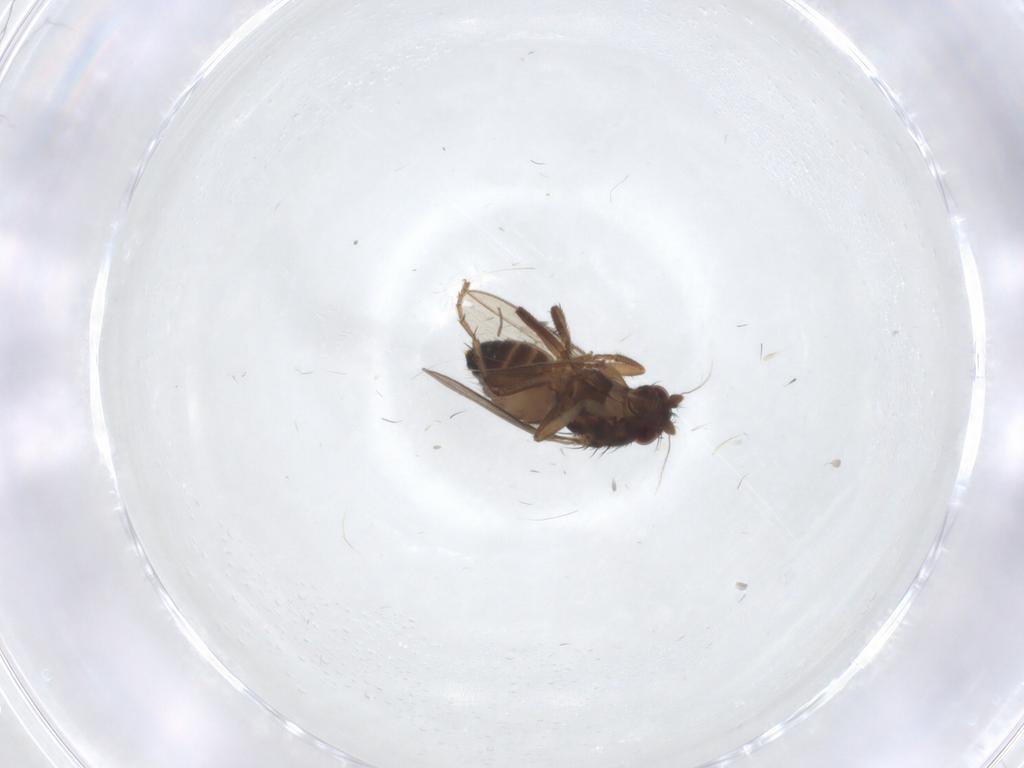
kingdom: Animalia
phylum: Arthropoda
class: Insecta
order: Diptera
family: Sphaeroceridae
